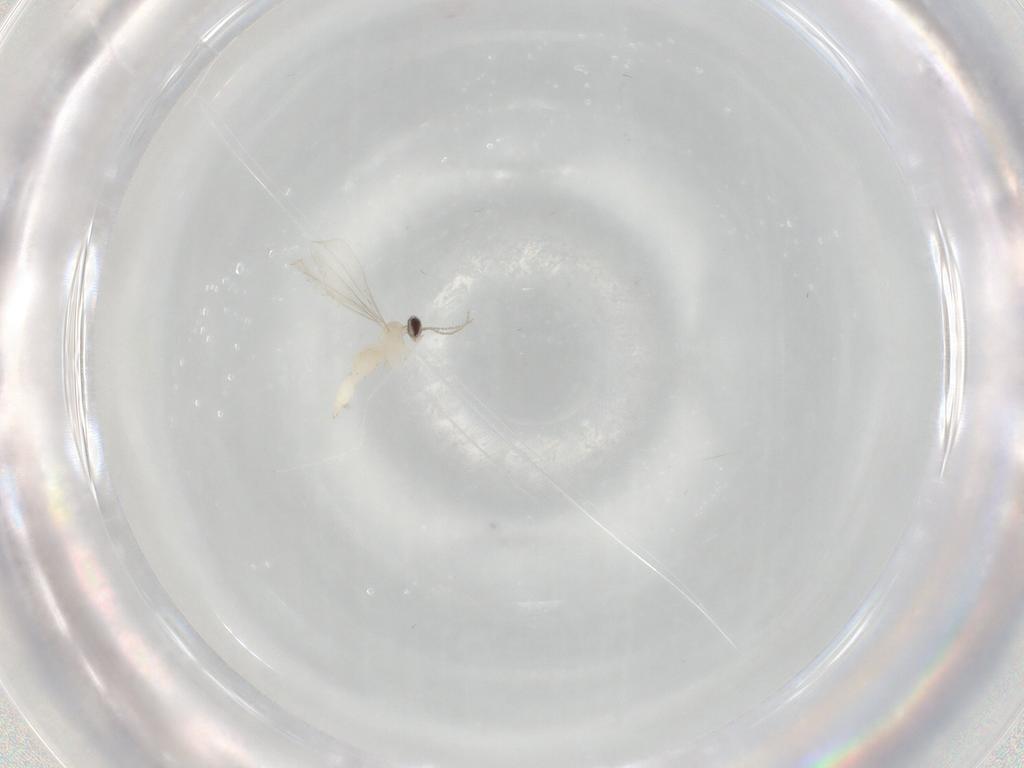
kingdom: Animalia
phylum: Arthropoda
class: Insecta
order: Diptera
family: Cecidomyiidae
